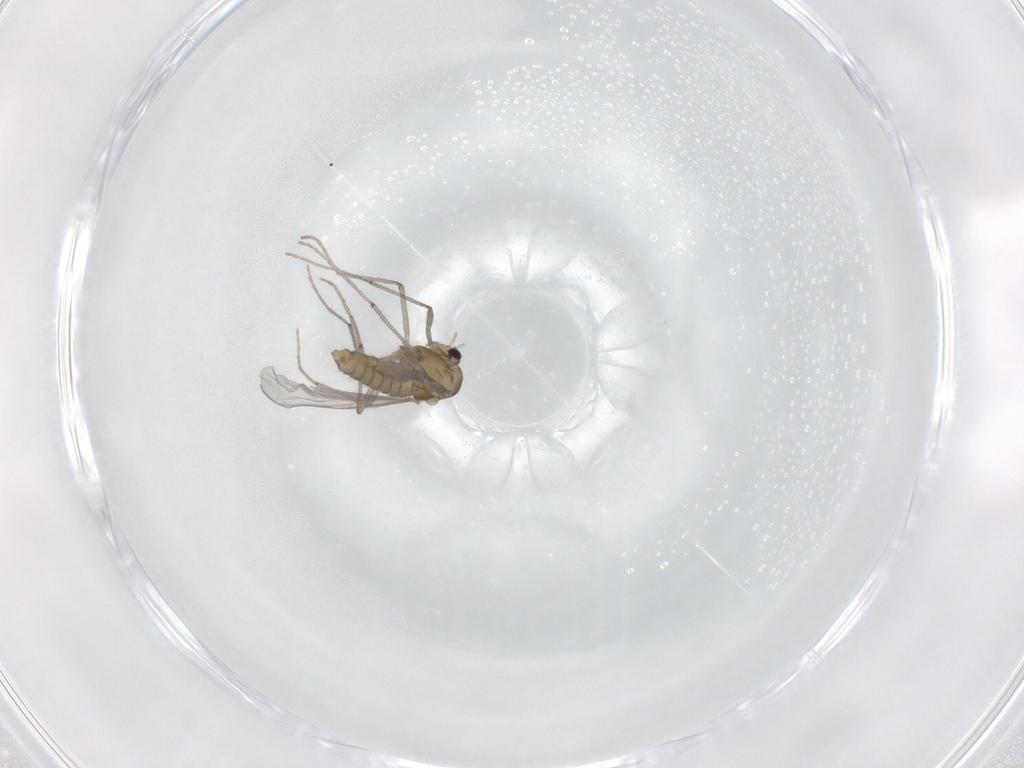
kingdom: Animalia
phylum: Arthropoda
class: Insecta
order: Diptera
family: Chironomidae
